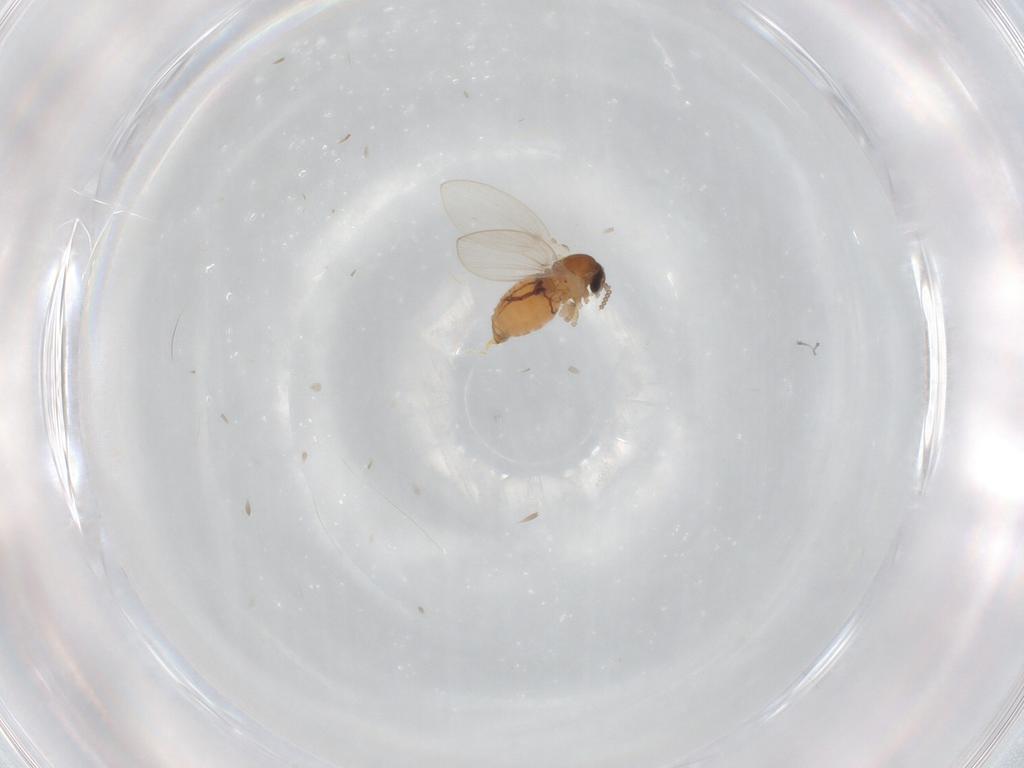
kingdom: Animalia
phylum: Arthropoda
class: Insecta
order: Diptera
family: Psychodidae
